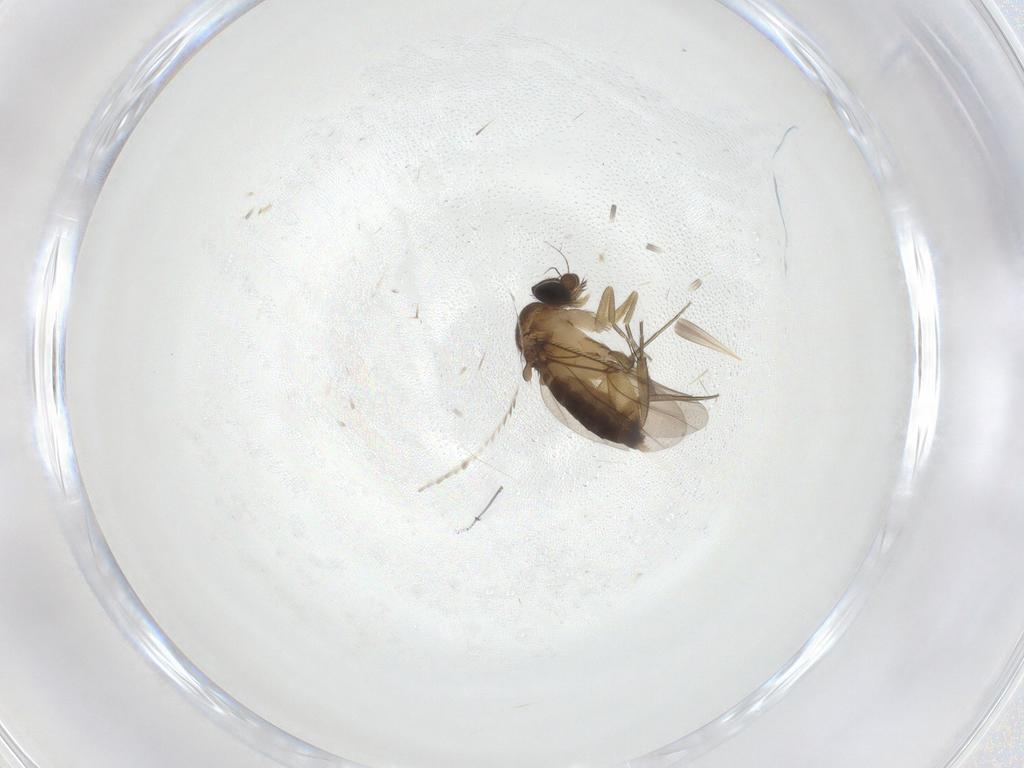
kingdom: Animalia
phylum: Arthropoda
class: Insecta
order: Diptera
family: Phoridae
